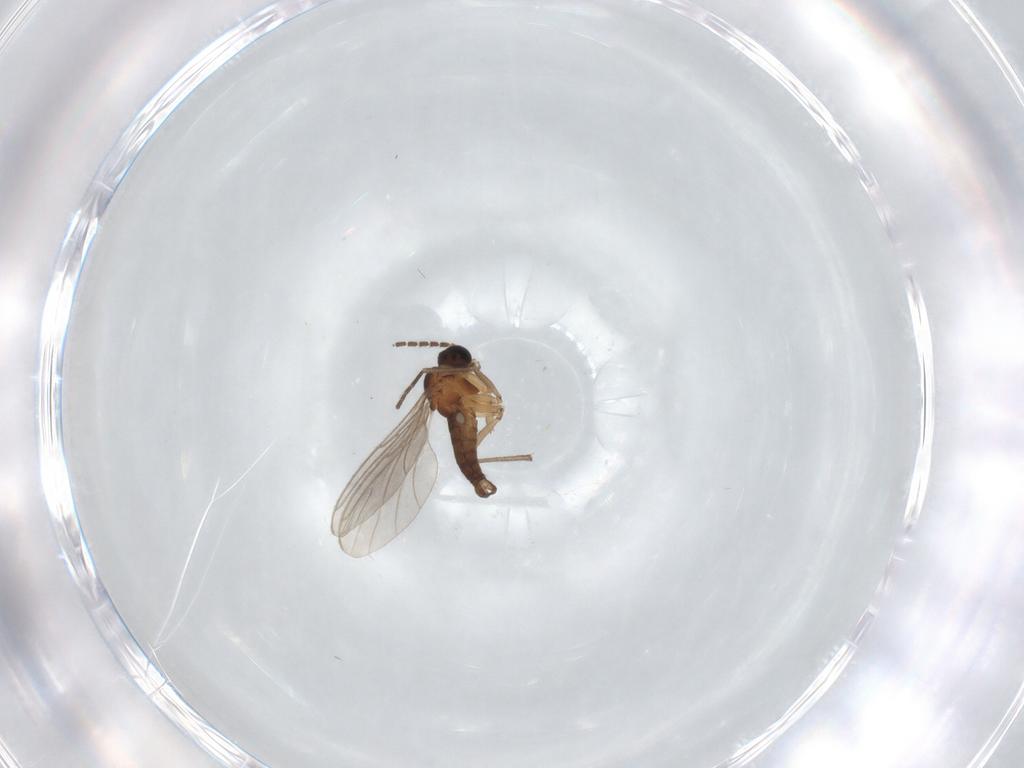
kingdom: Animalia
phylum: Arthropoda
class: Insecta
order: Diptera
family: Sciaridae
